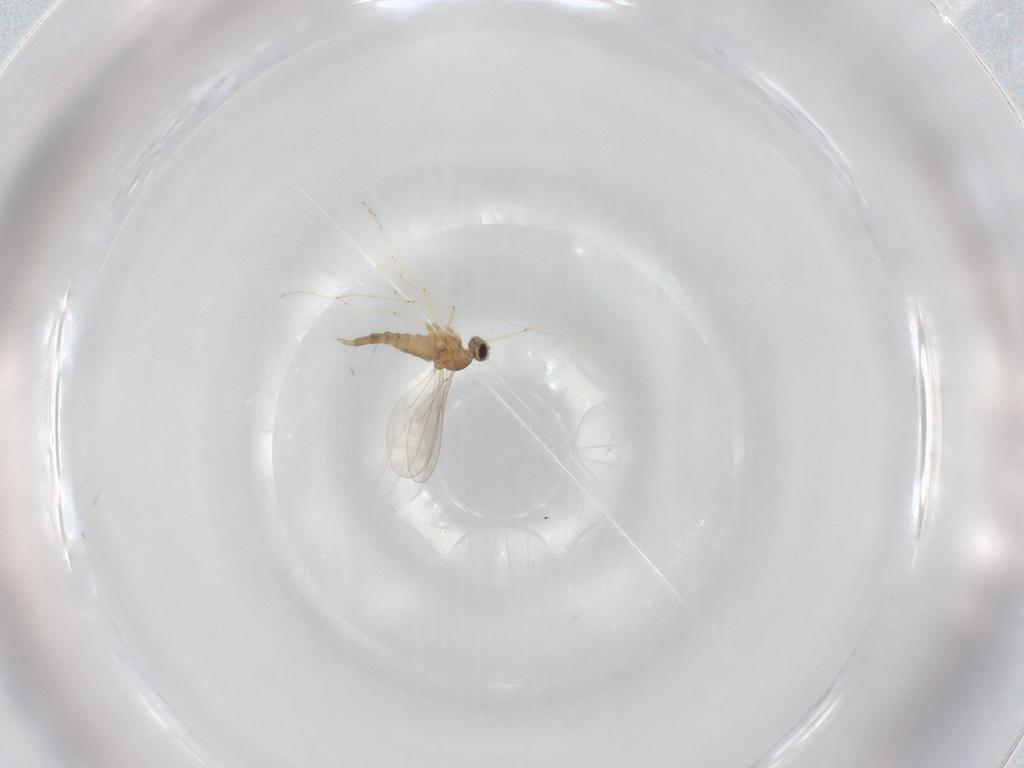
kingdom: Animalia
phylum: Arthropoda
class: Insecta
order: Diptera
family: Cecidomyiidae
